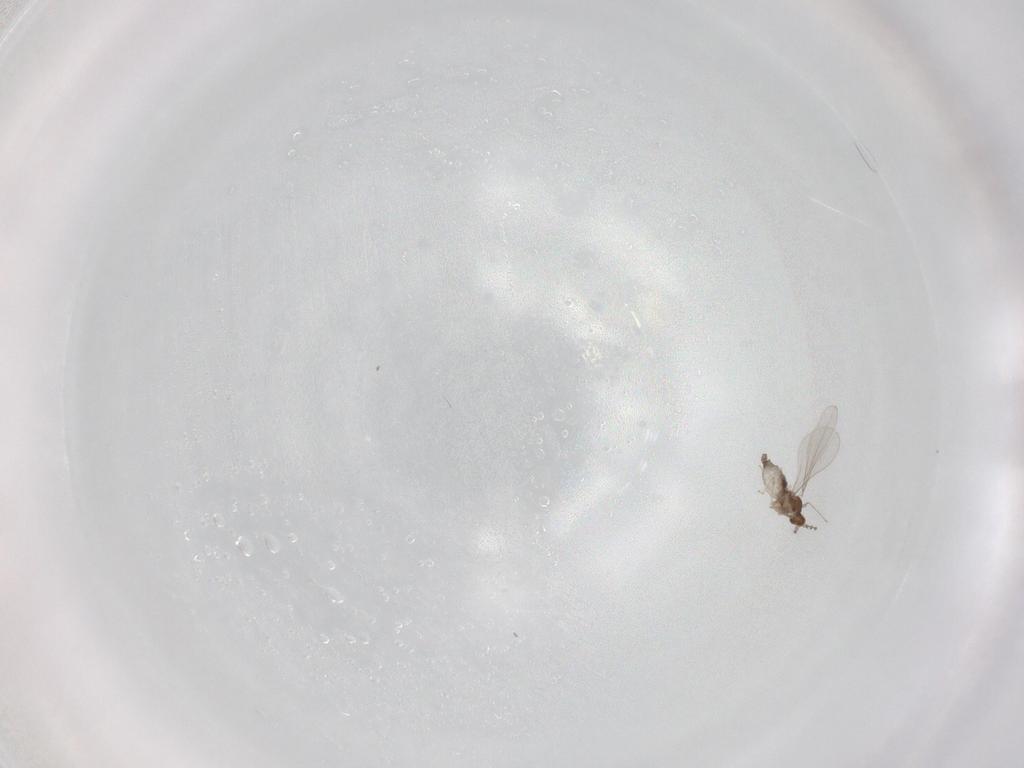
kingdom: Animalia
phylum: Arthropoda
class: Insecta
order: Diptera
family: Cecidomyiidae
